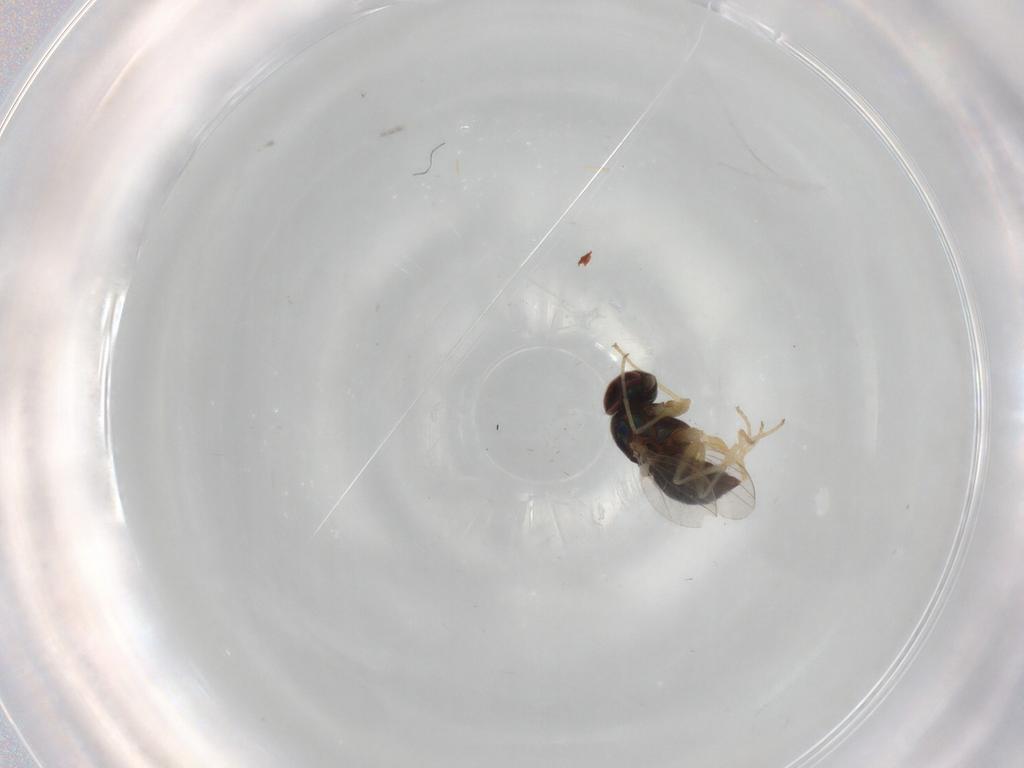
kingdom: Animalia
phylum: Arthropoda
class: Insecta
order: Diptera
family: Dolichopodidae
